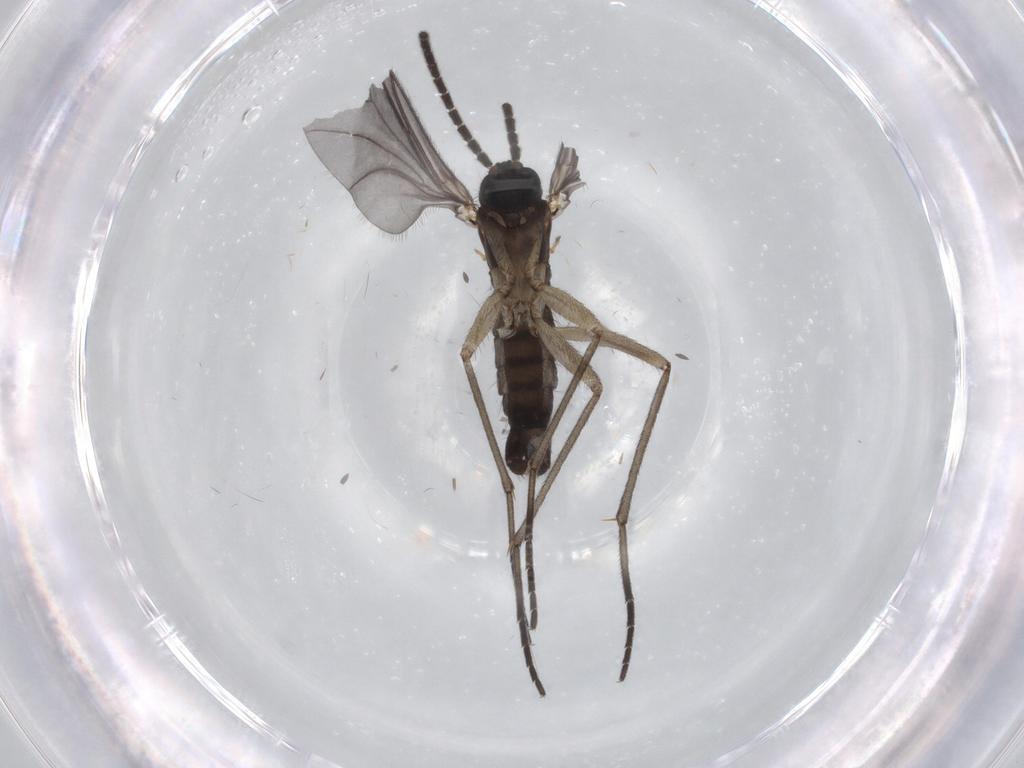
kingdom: Animalia
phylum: Arthropoda
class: Insecta
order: Diptera
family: Sciaridae
